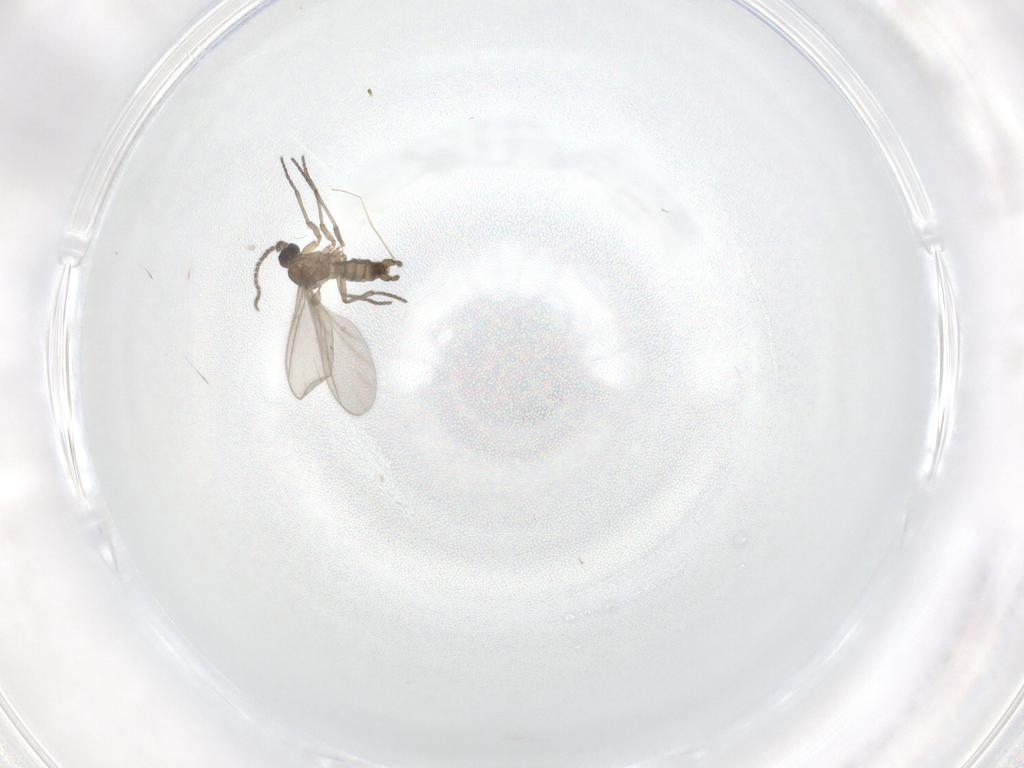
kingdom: Animalia
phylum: Arthropoda
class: Insecta
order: Diptera
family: Sciaridae
